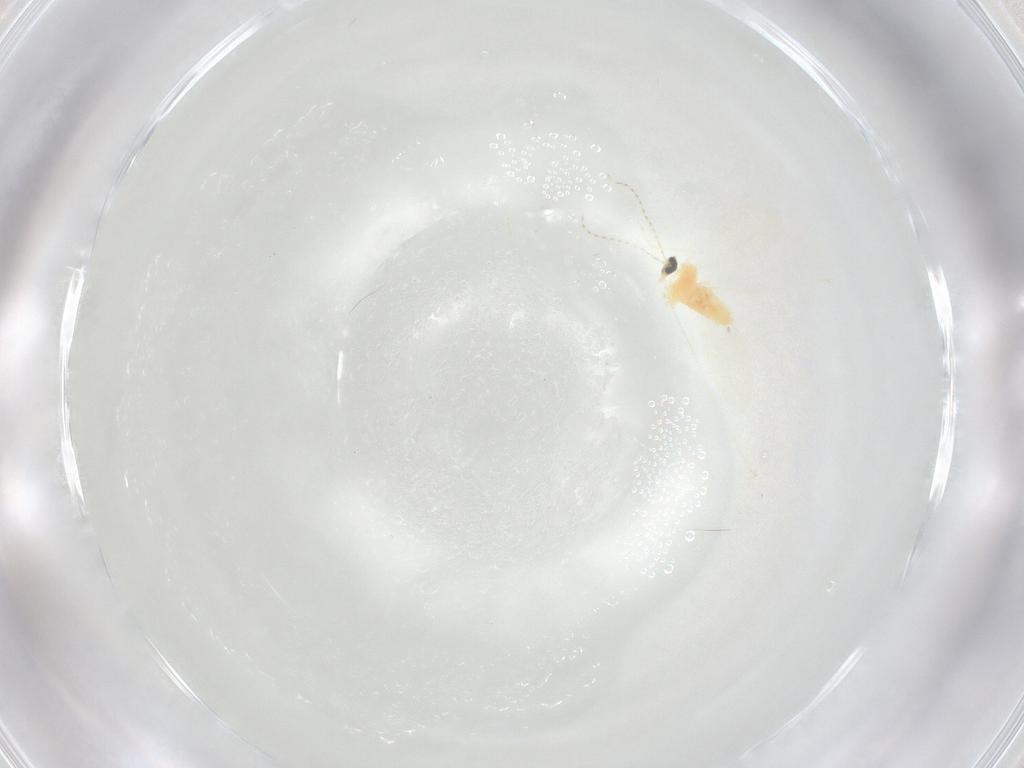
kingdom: Animalia
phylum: Arthropoda
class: Insecta
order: Diptera
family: Cecidomyiidae
